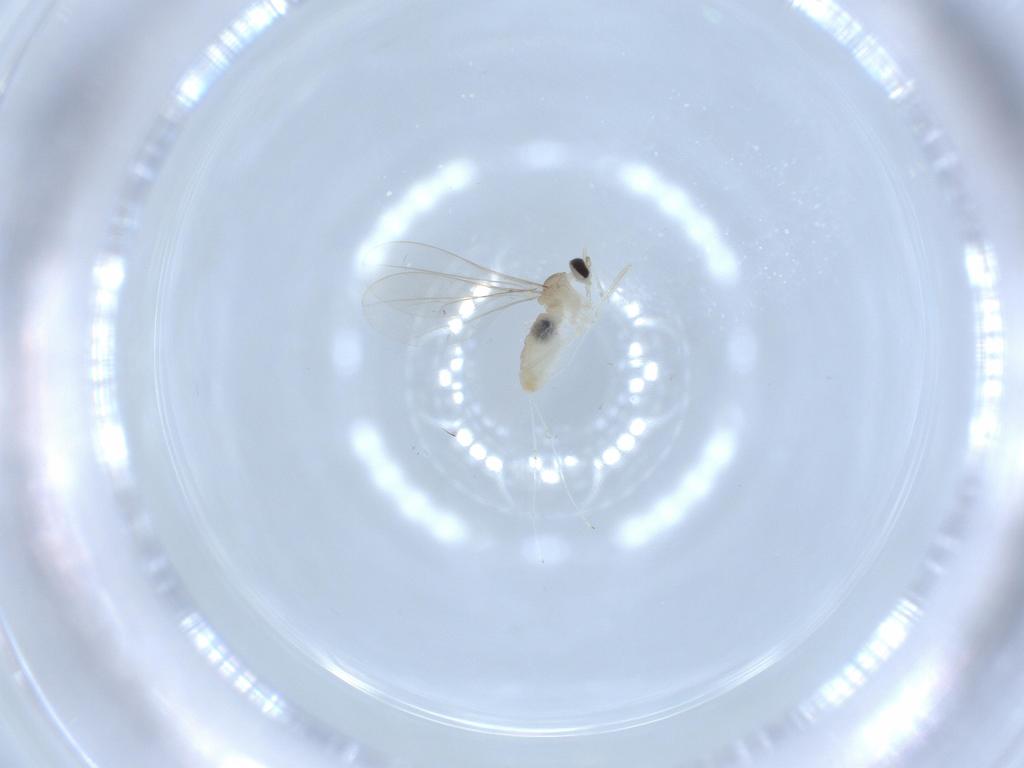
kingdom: Animalia
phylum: Arthropoda
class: Insecta
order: Diptera
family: Cecidomyiidae
